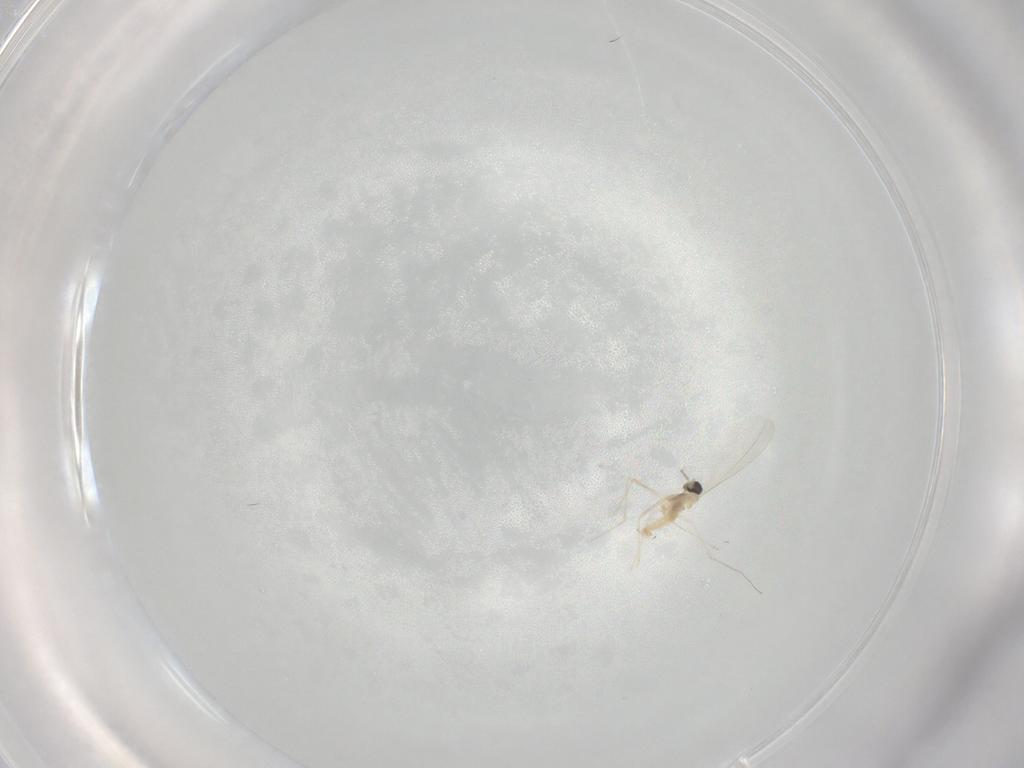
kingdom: Animalia
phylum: Arthropoda
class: Insecta
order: Diptera
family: Cecidomyiidae
